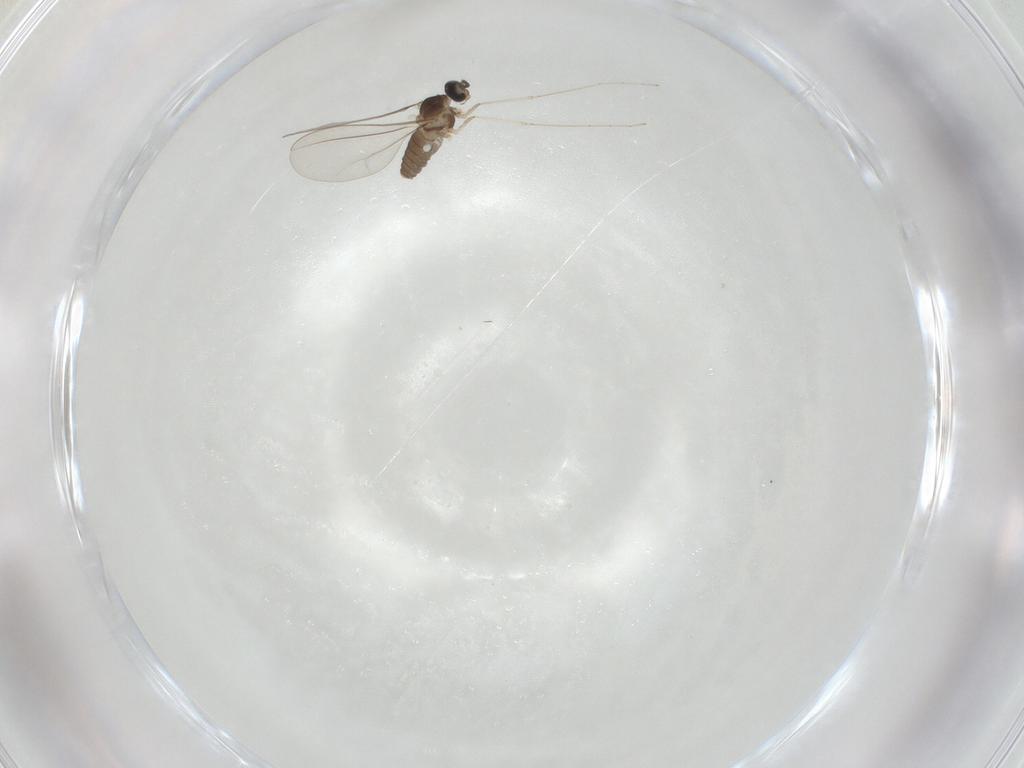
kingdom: Animalia
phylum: Arthropoda
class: Insecta
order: Diptera
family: Cecidomyiidae
